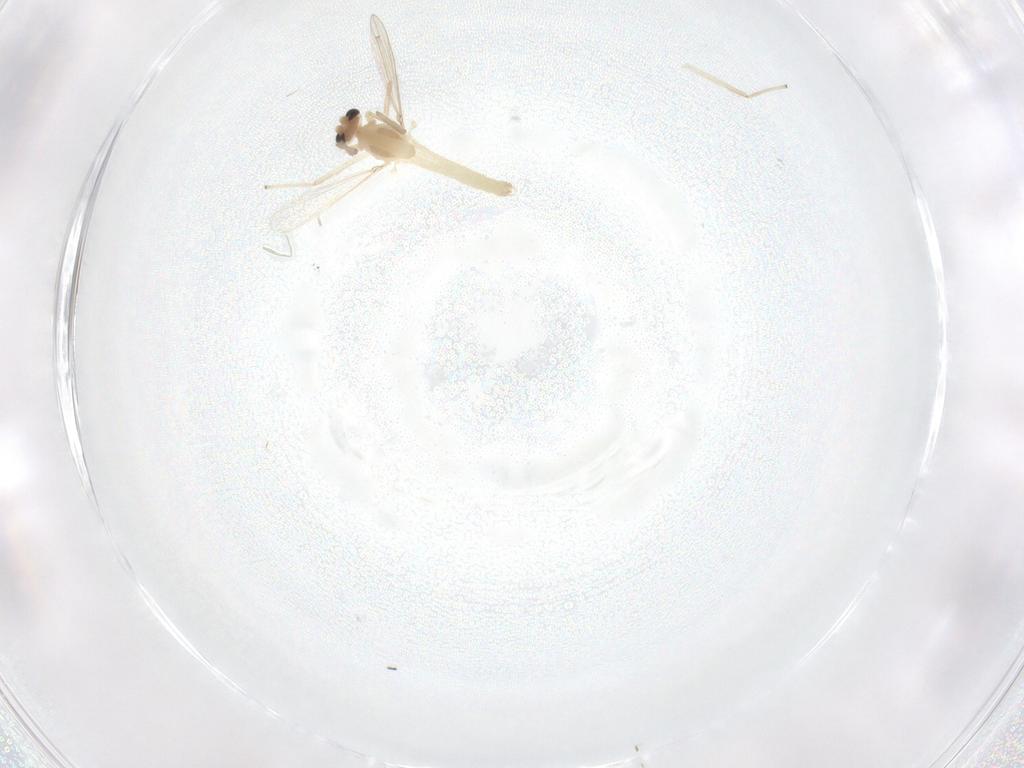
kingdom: Animalia
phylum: Arthropoda
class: Insecta
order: Diptera
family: Chironomidae
